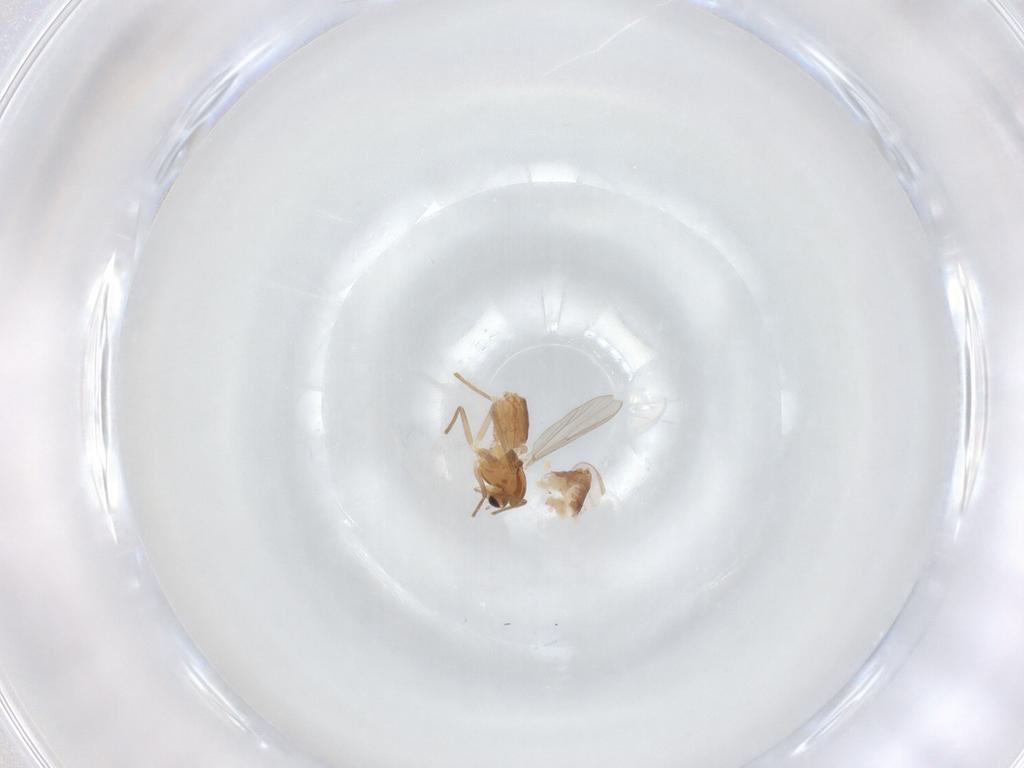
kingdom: Animalia
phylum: Arthropoda
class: Insecta
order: Diptera
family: Chironomidae
